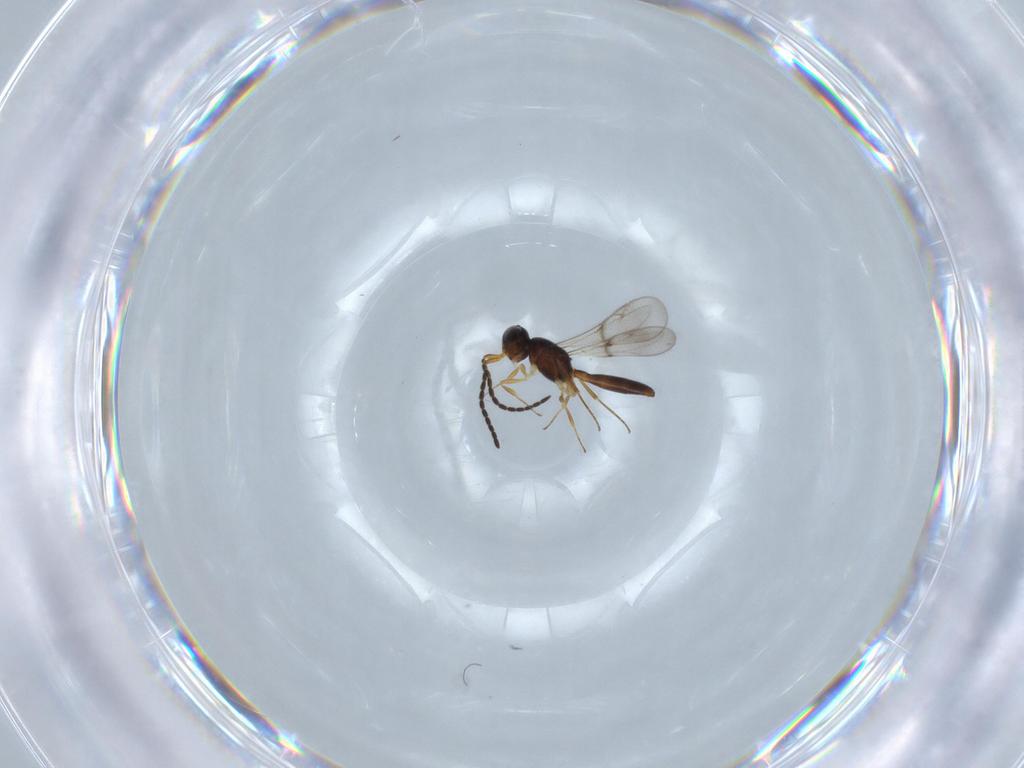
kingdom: Animalia
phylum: Arthropoda
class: Insecta
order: Hymenoptera
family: Scelionidae
